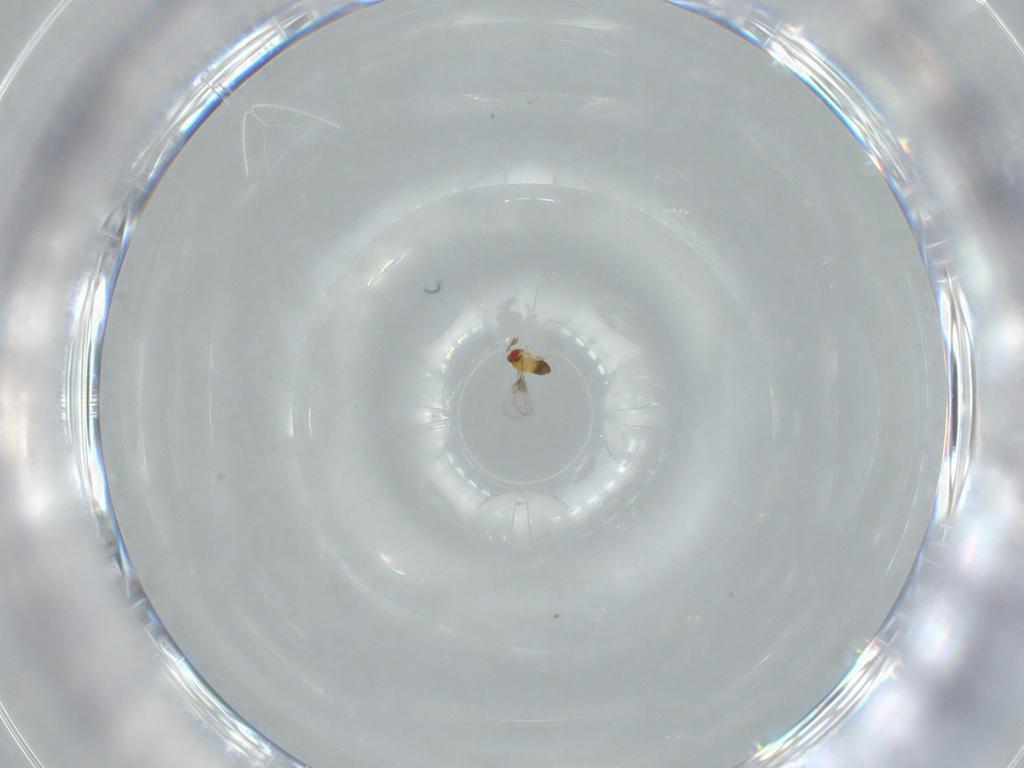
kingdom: Animalia
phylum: Arthropoda
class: Insecta
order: Hymenoptera
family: Trichogrammatidae
